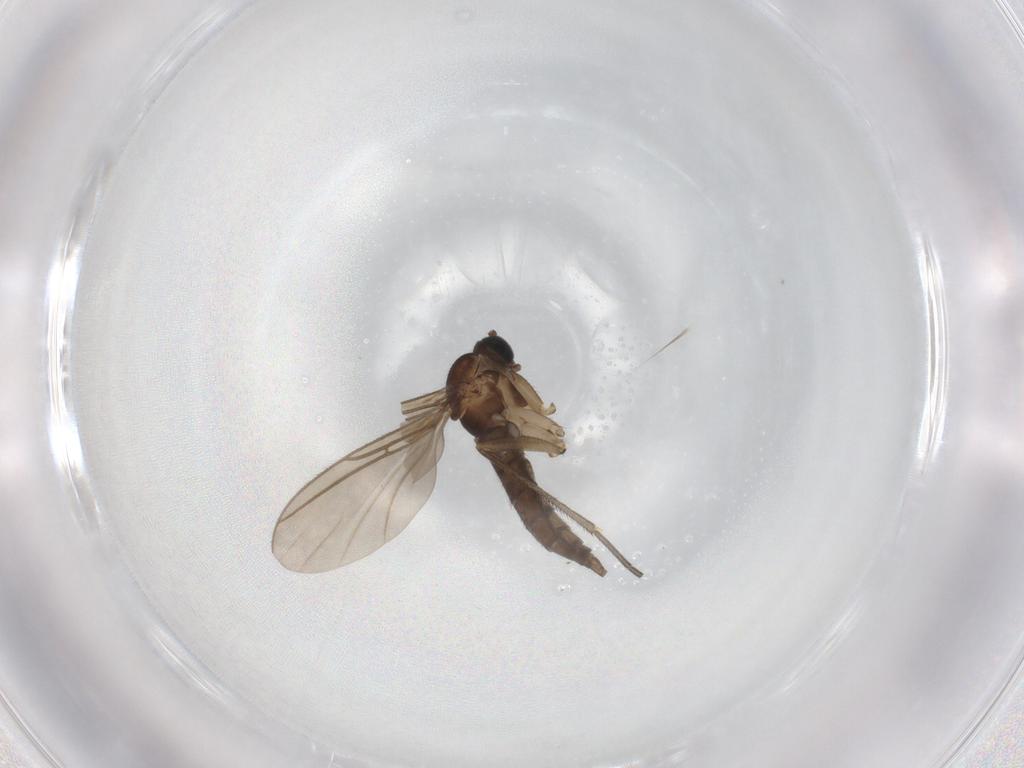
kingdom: Animalia
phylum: Arthropoda
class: Insecta
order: Diptera
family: Sciaridae
